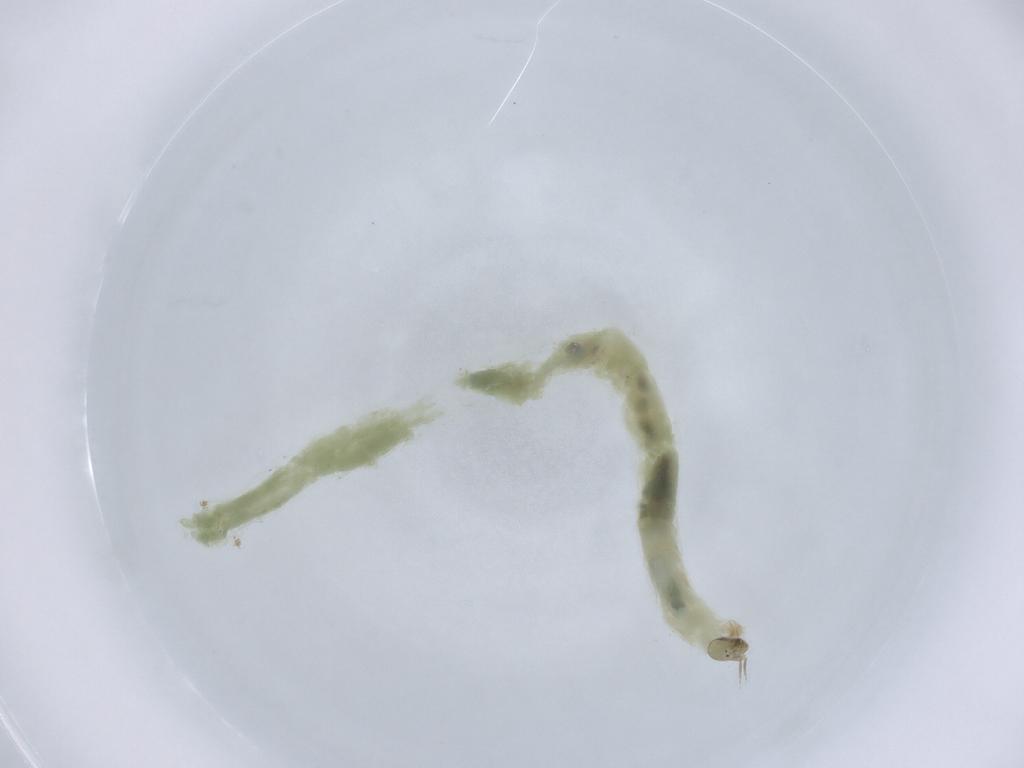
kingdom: Animalia
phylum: Arthropoda
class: Insecta
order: Diptera
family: Chironomidae
